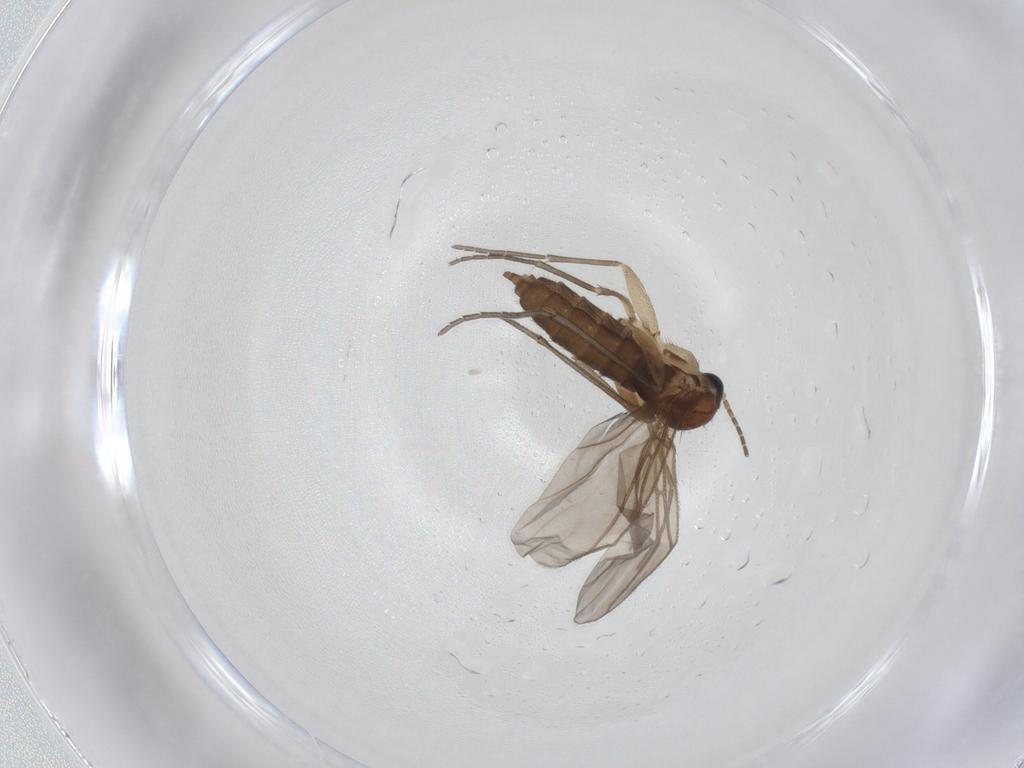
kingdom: Animalia
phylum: Arthropoda
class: Insecta
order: Diptera
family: Sciaridae
